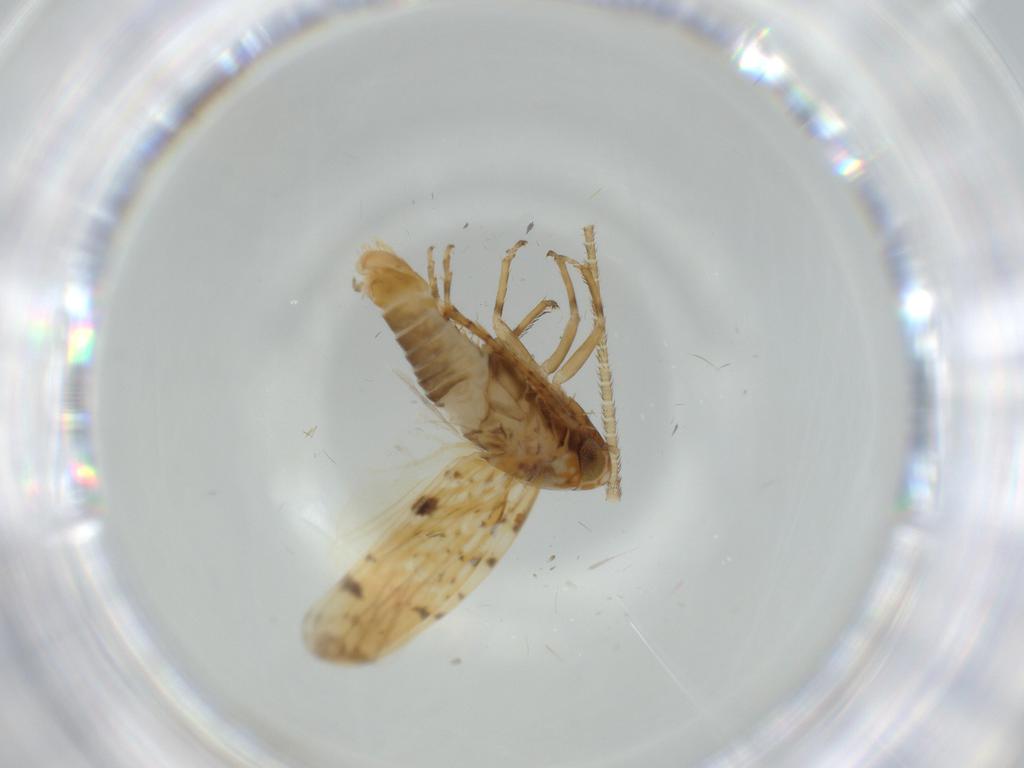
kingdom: Animalia
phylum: Arthropoda
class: Insecta
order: Hemiptera
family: Cicadellidae
